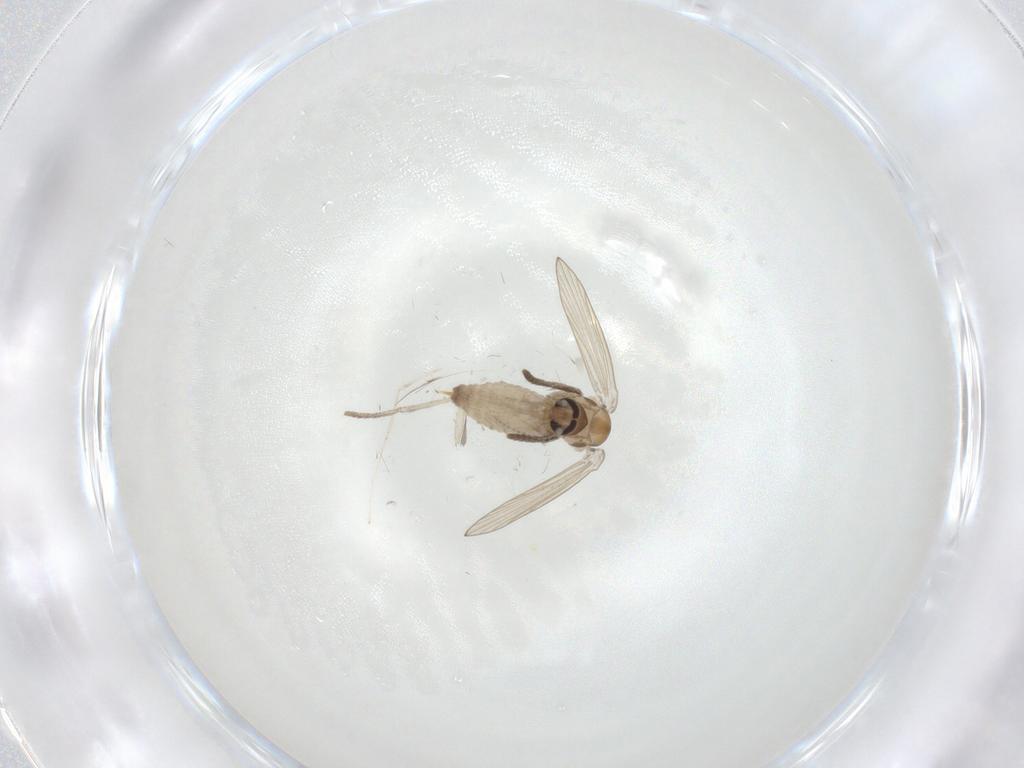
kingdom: Animalia
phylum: Arthropoda
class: Insecta
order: Diptera
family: Psychodidae
